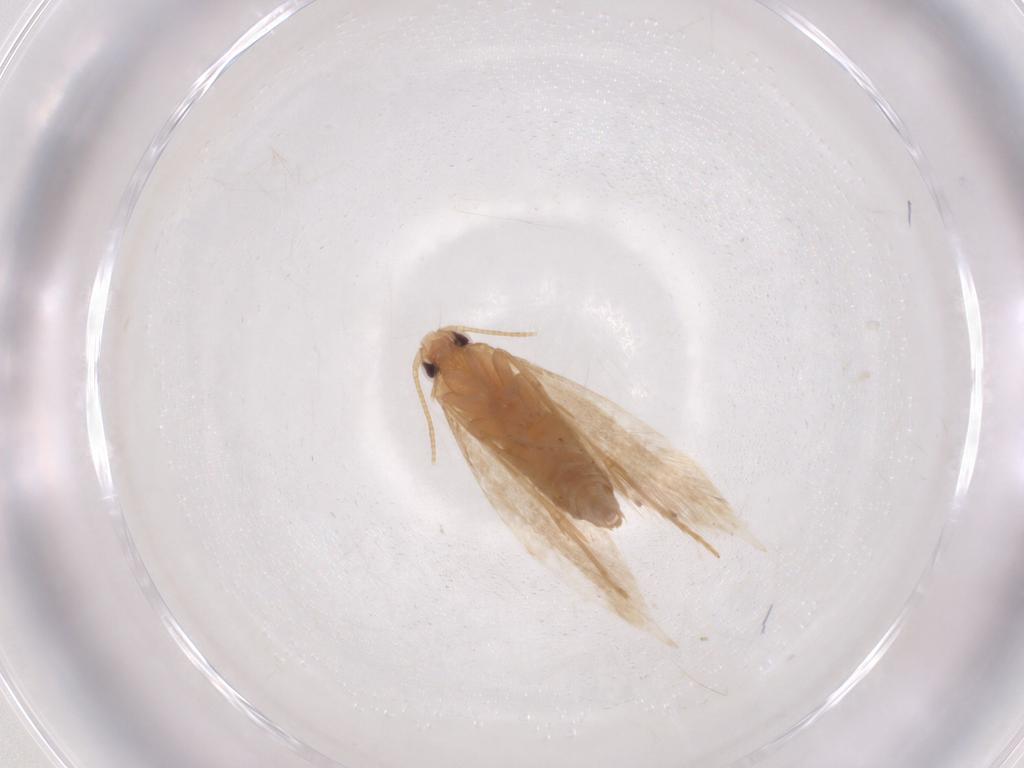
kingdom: Animalia
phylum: Arthropoda
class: Insecta
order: Lepidoptera
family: Tineidae
